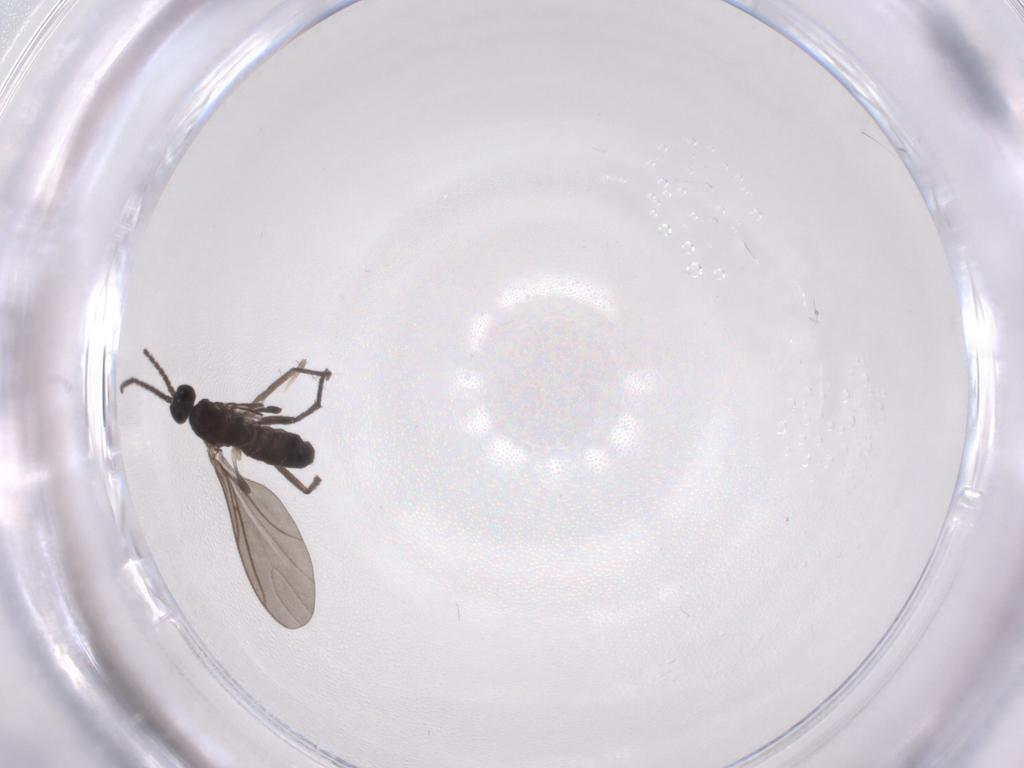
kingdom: Animalia
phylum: Arthropoda
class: Insecta
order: Diptera
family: Sciaridae
